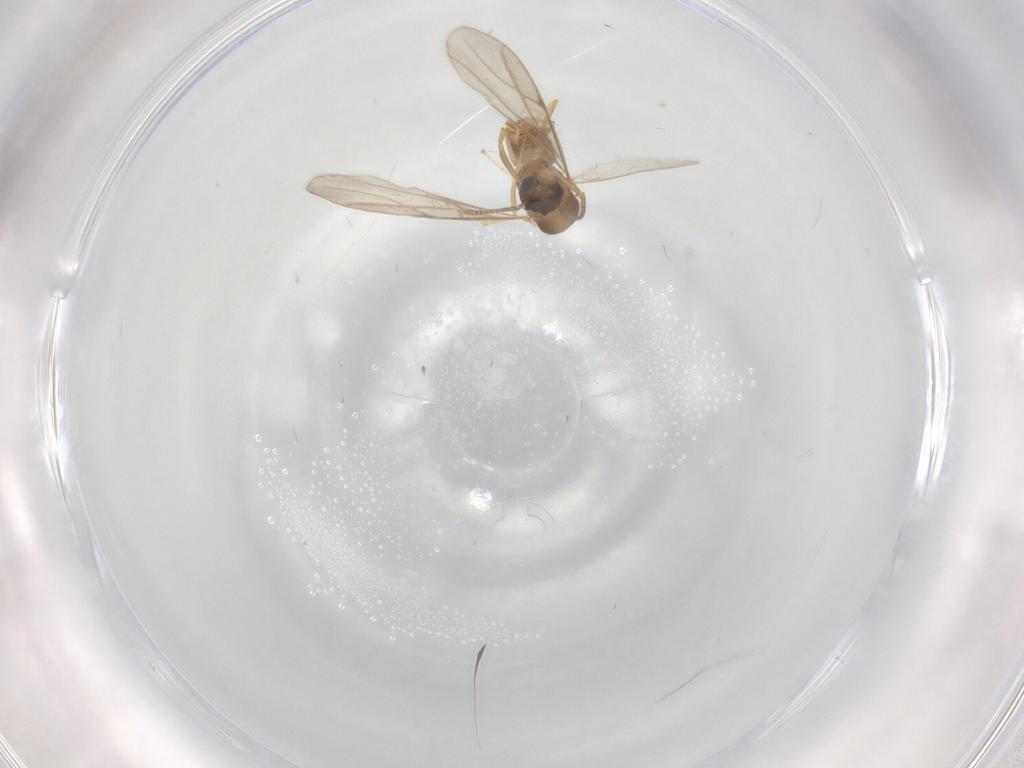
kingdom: Animalia
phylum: Arthropoda
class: Insecta
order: Hymenoptera
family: Formicidae
